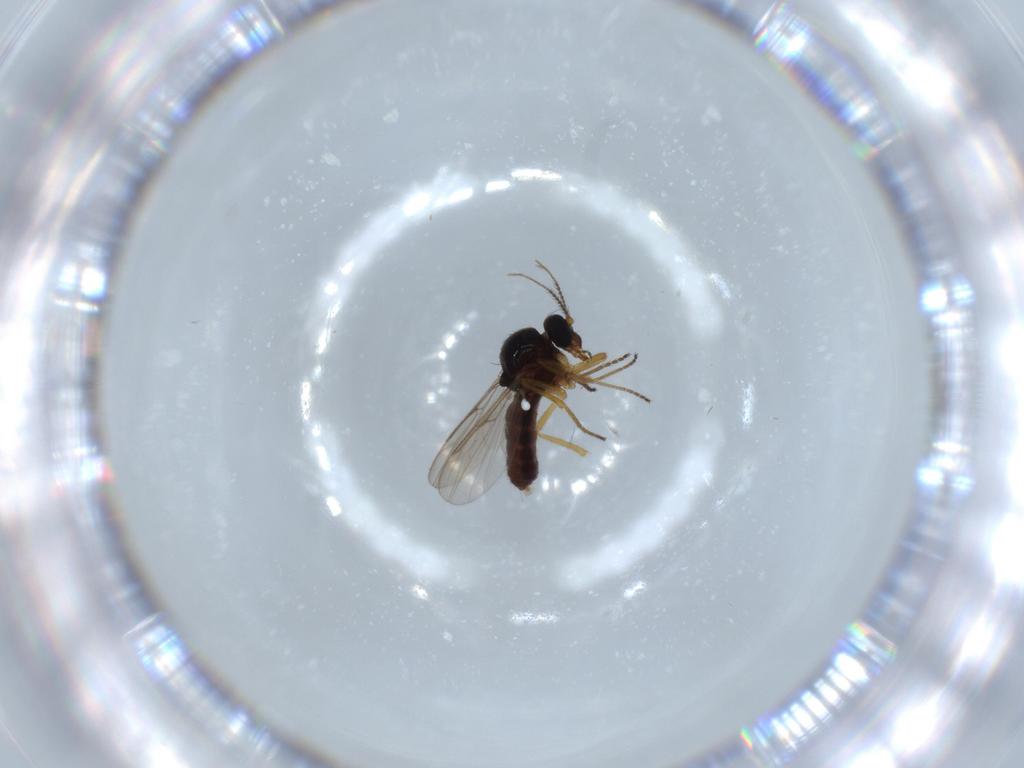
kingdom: Animalia
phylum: Arthropoda
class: Insecta
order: Diptera
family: Ceratopogonidae
